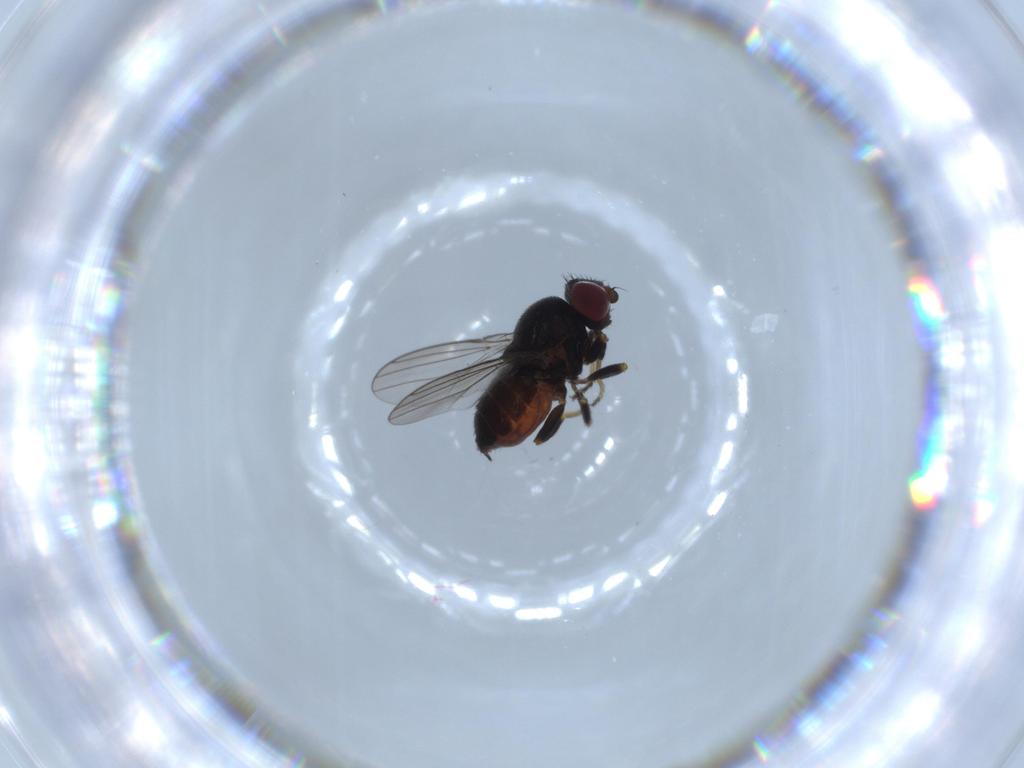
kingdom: Animalia
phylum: Arthropoda
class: Insecta
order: Diptera
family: Chloropidae
